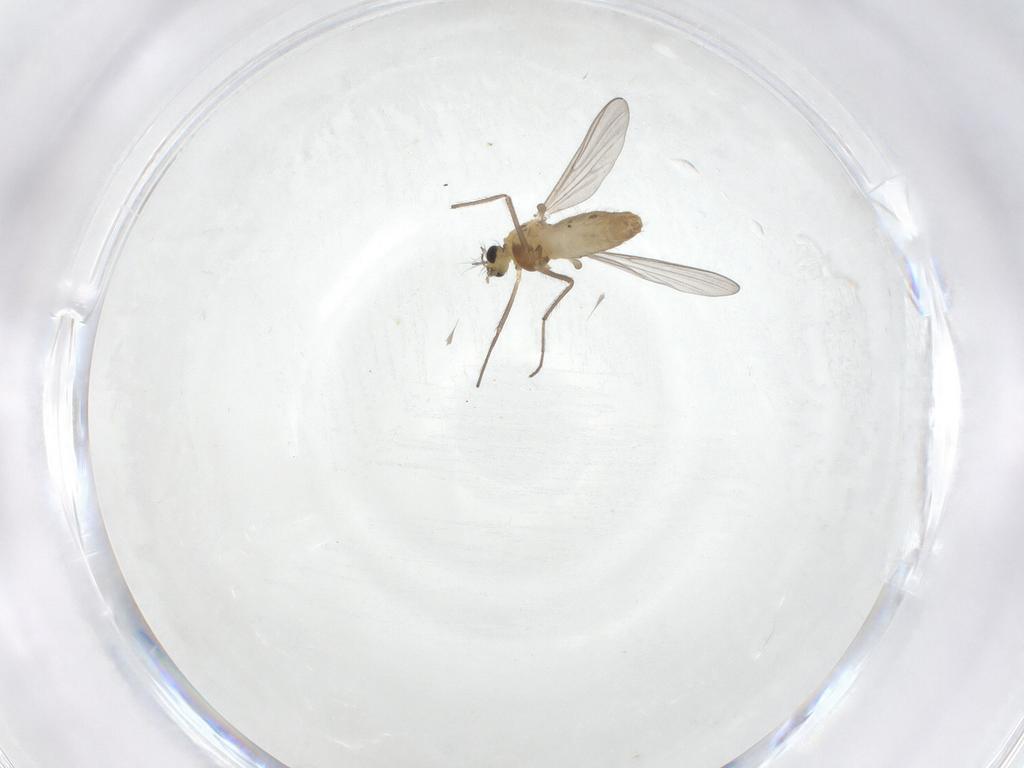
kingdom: Animalia
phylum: Arthropoda
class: Insecta
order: Diptera
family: Chironomidae
